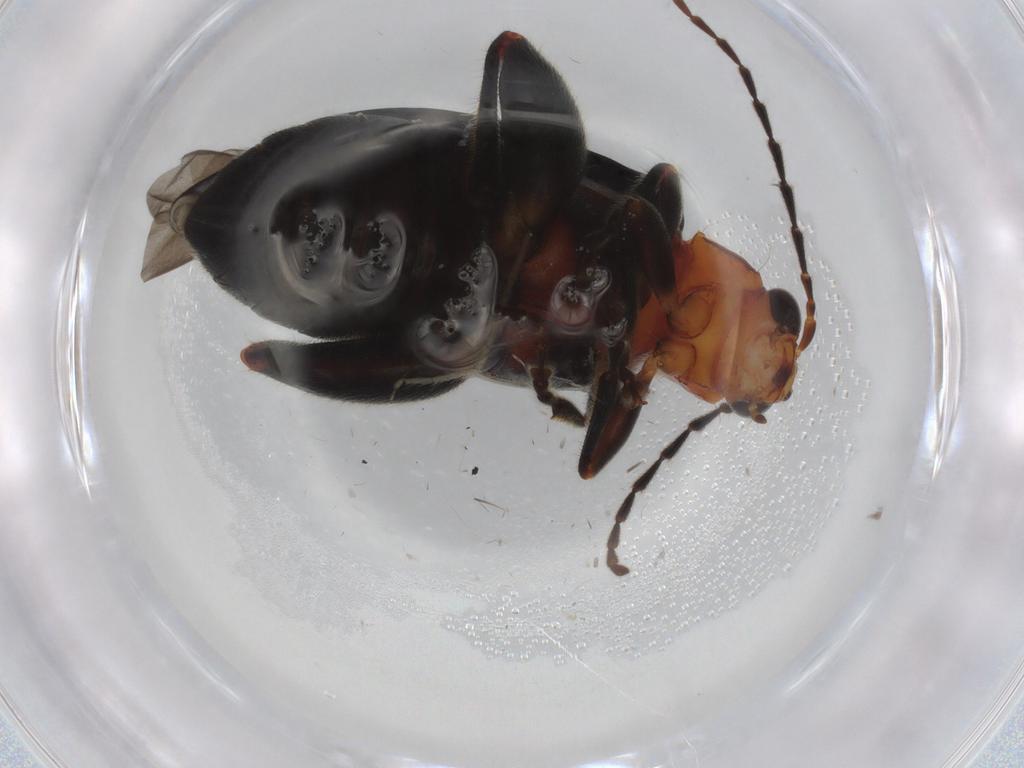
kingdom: Animalia
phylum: Arthropoda
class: Insecta
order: Coleoptera
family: Chrysomelidae
